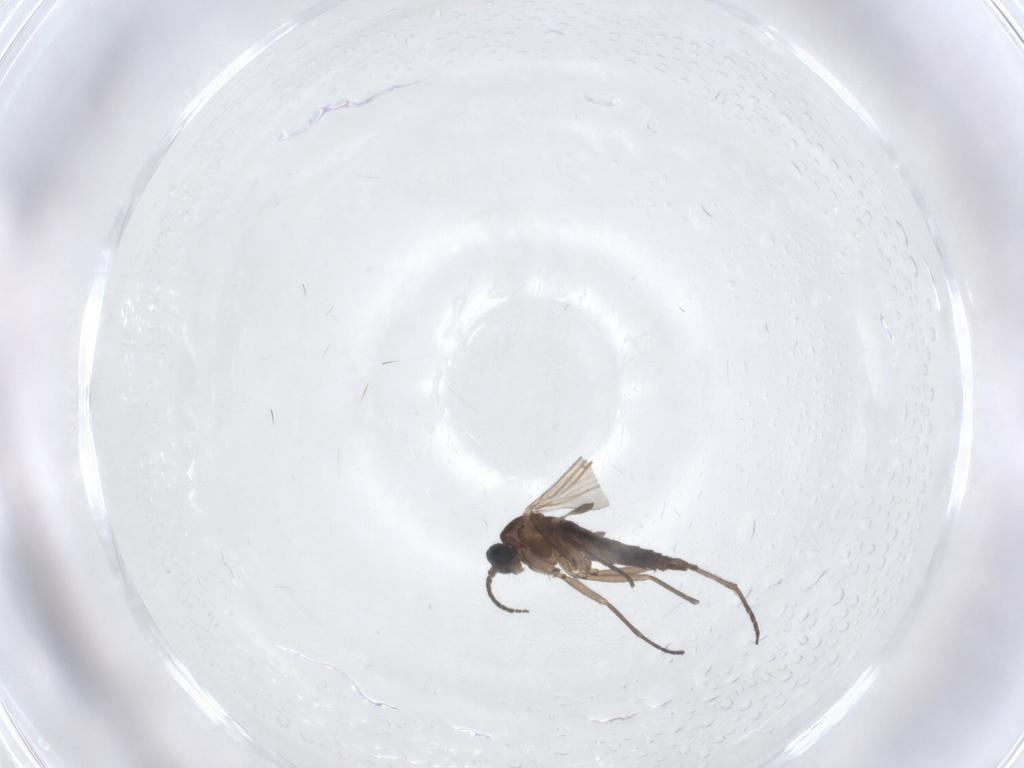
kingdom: Animalia
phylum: Arthropoda
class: Insecta
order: Diptera
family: Sciaridae
